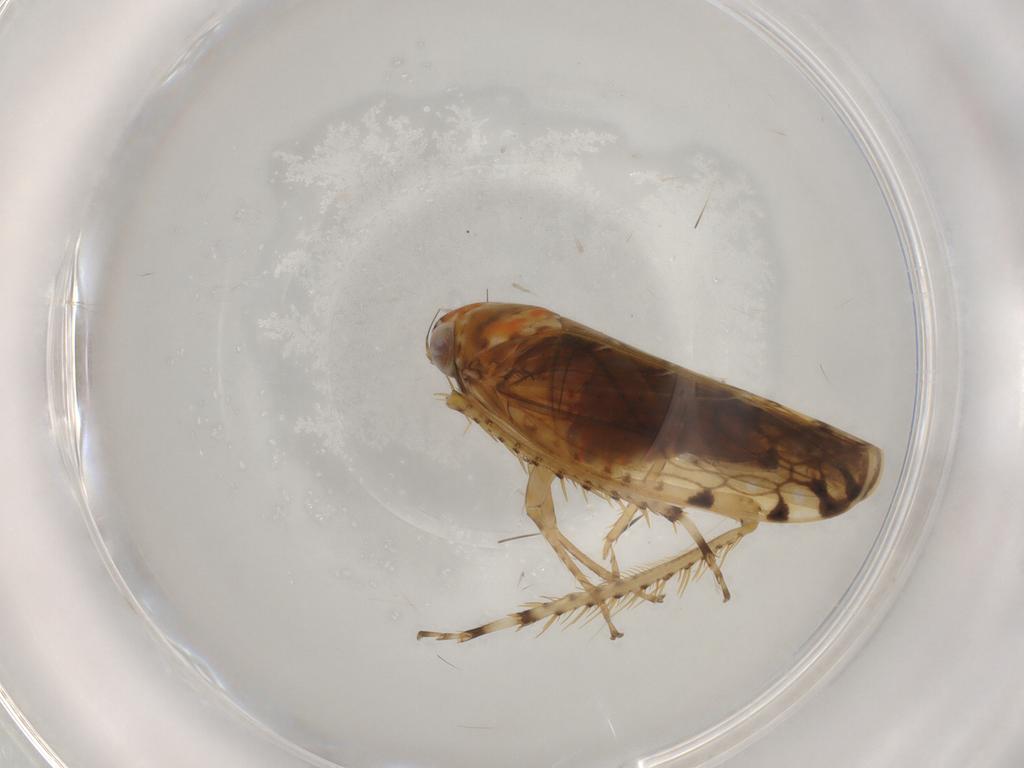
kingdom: Animalia
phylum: Arthropoda
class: Insecta
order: Hemiptera
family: Cicadellidae
